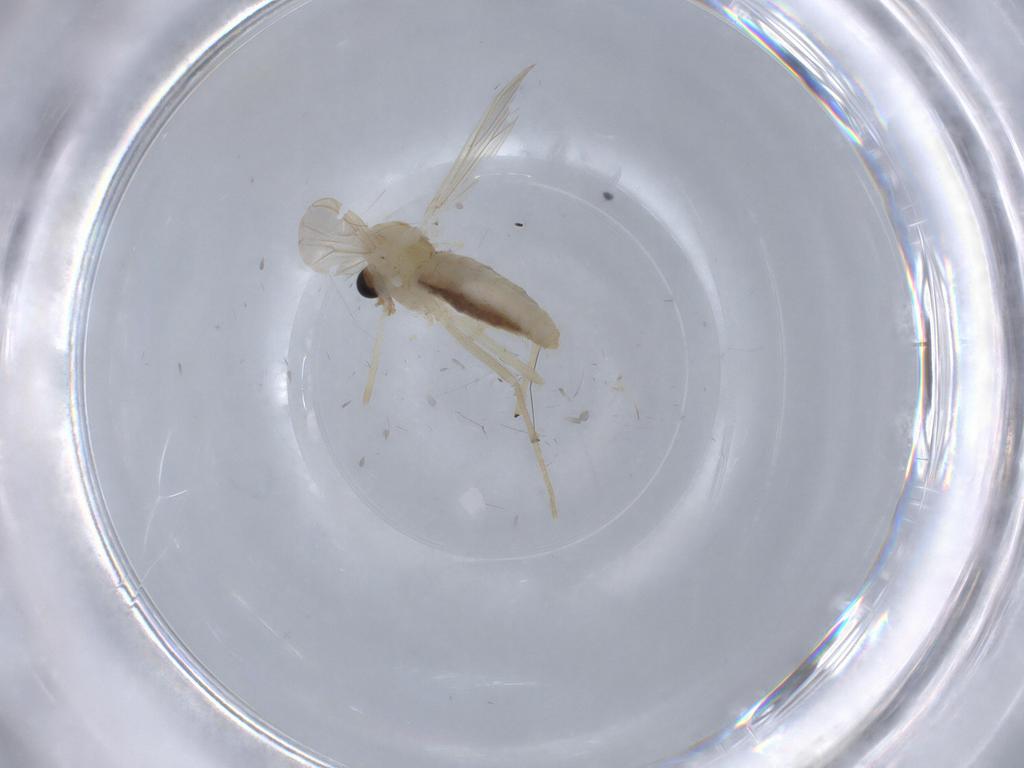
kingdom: Animalia
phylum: Arthropoda
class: Insecta
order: Diptera
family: Chironomidae
